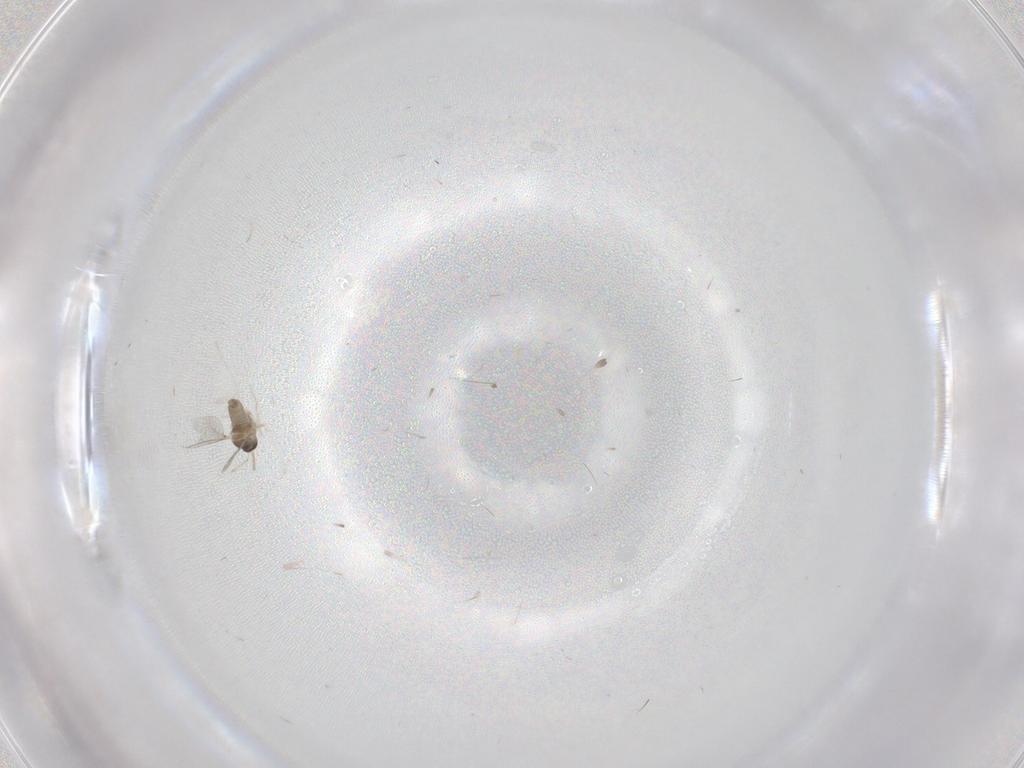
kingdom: Animalia
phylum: Arthropoda
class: Insecta
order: Diptera
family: Cecidomyiidae
